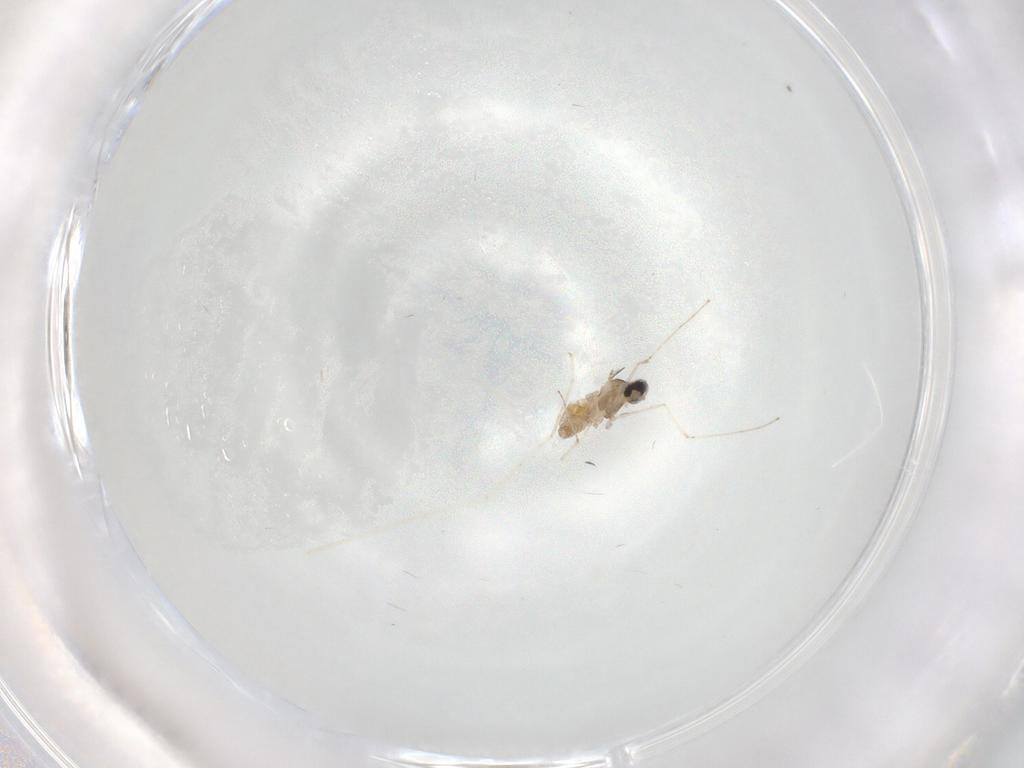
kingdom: Animalia
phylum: Arthropoda
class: Insecta
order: Diptera
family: Cecidomyiidae
